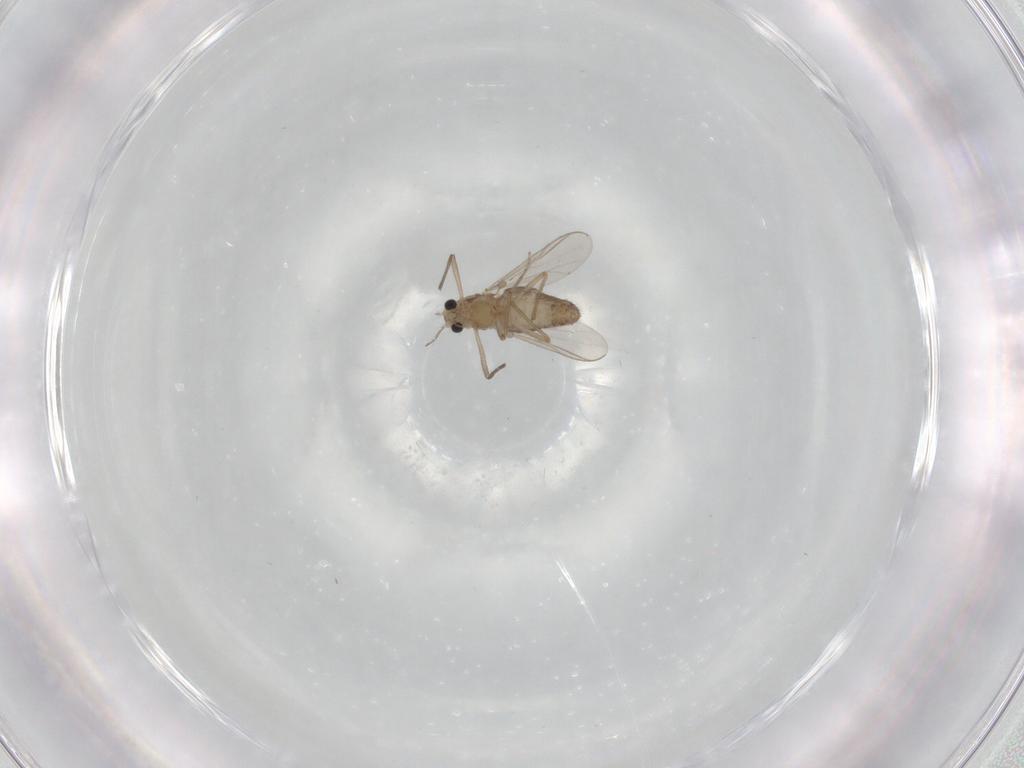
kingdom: Animalia
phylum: Arthropoda
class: Insecta
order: Diptera
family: Chironomidae
